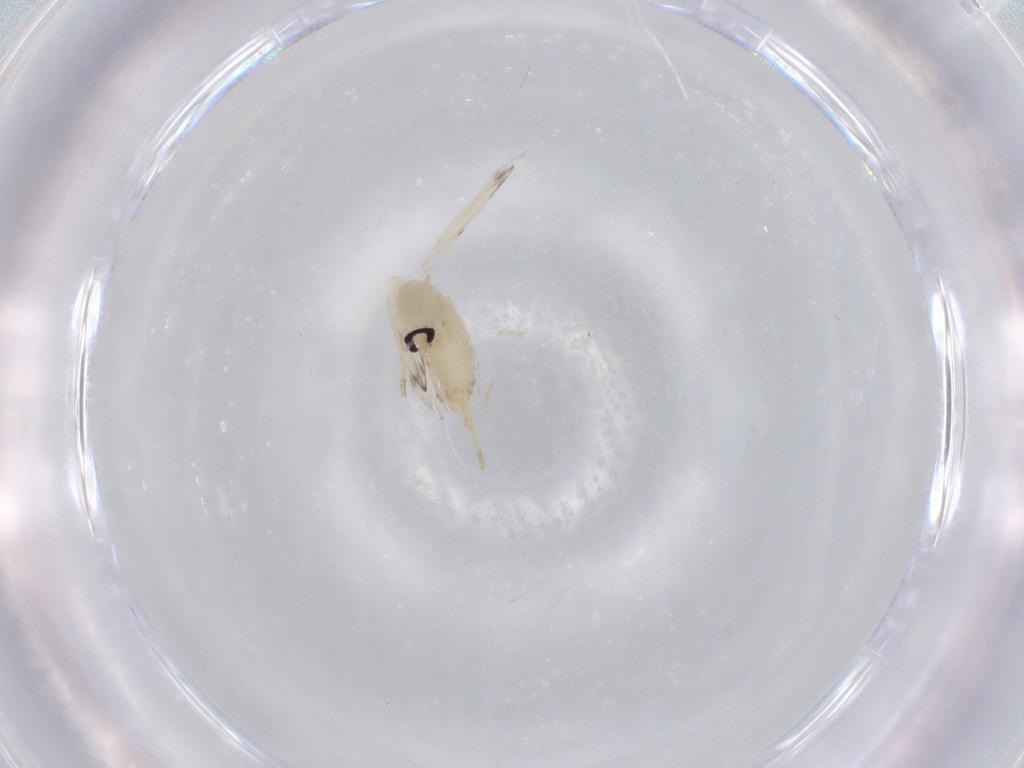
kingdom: Animalia
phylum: Arthropoda
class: Insecta
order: Diptera
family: Psychodidae
